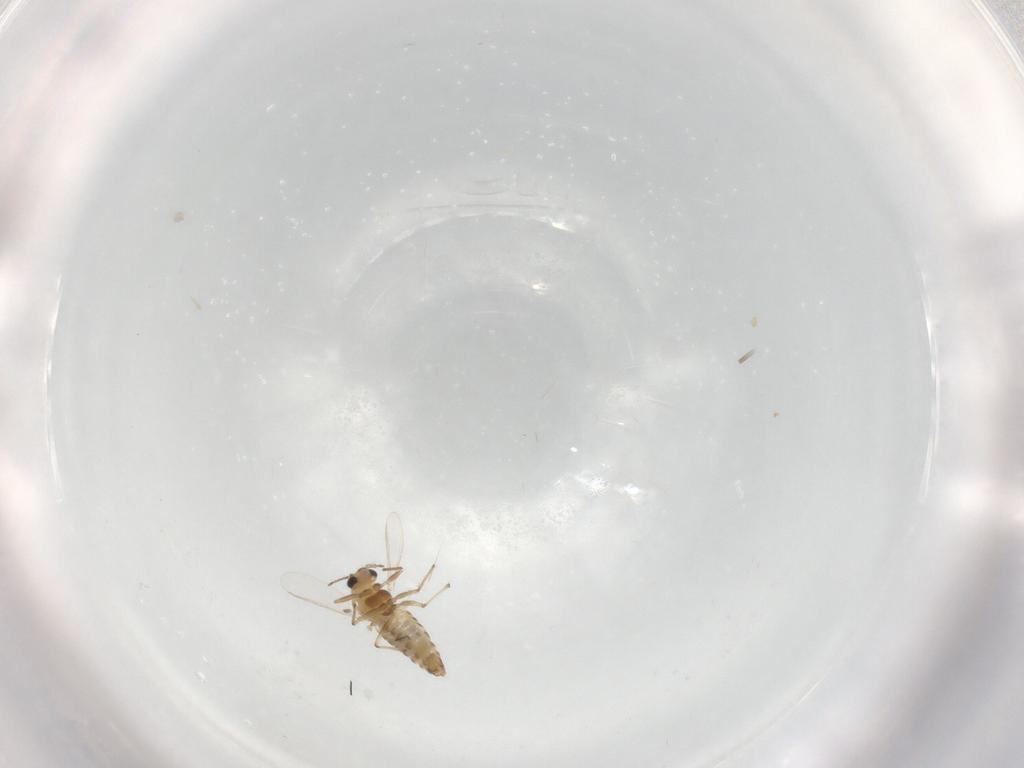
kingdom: Animalia
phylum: Arthropoda
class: Insecta
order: Diptera
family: Chironomidae
